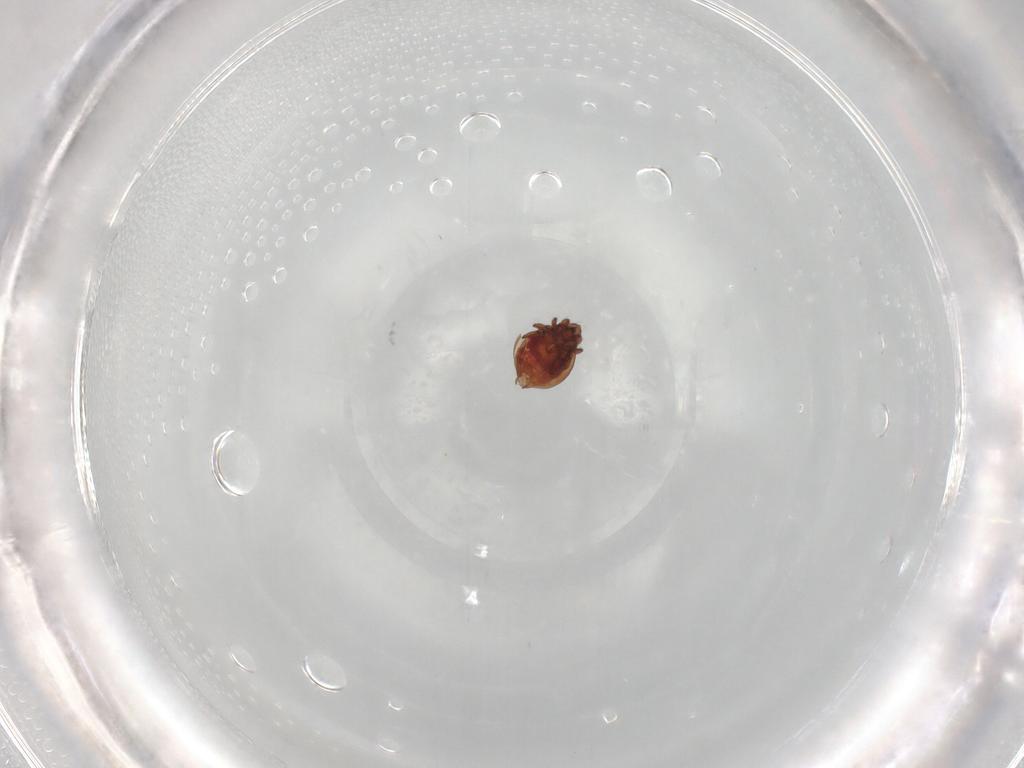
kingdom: Animalia
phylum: Arthropoda
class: Arachnida
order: Sarcoptiformes
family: Oribatulidae
